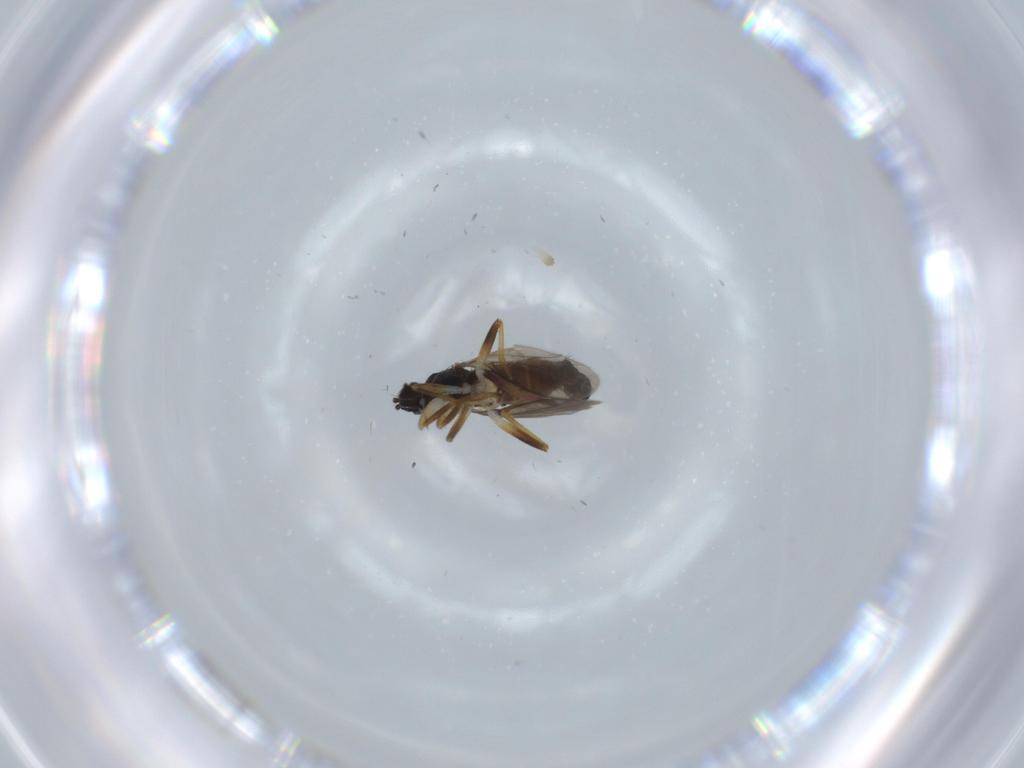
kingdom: Animalia
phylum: Arthropoda
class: Insecta
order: Diptera
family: Hybotidae
